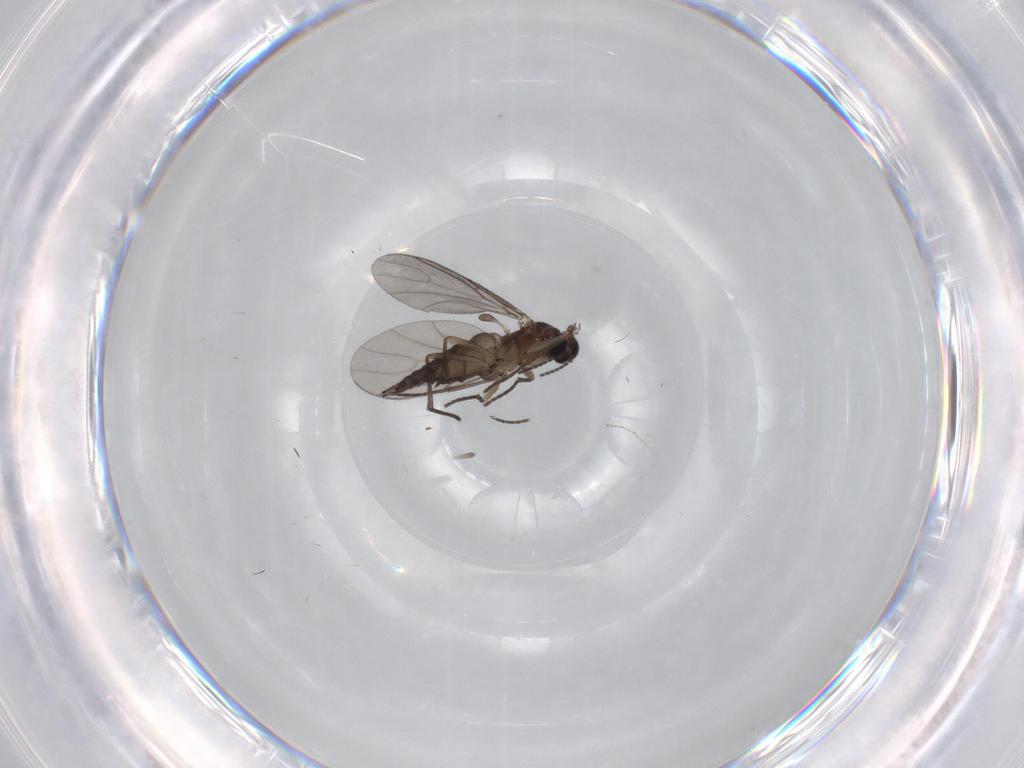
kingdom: Animalia
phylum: Arthropoda
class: Insecta
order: Diptera
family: Sciaridae
